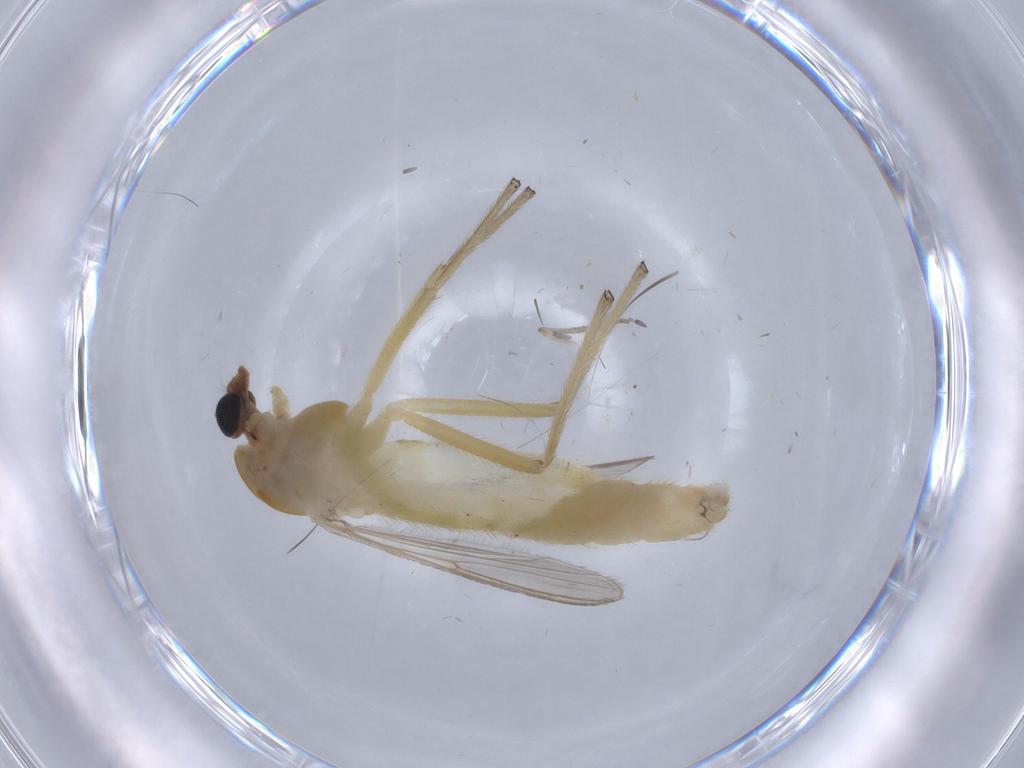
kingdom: Animalia
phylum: Arthropoda
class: Insecta
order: Diptera
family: Chironomidae
